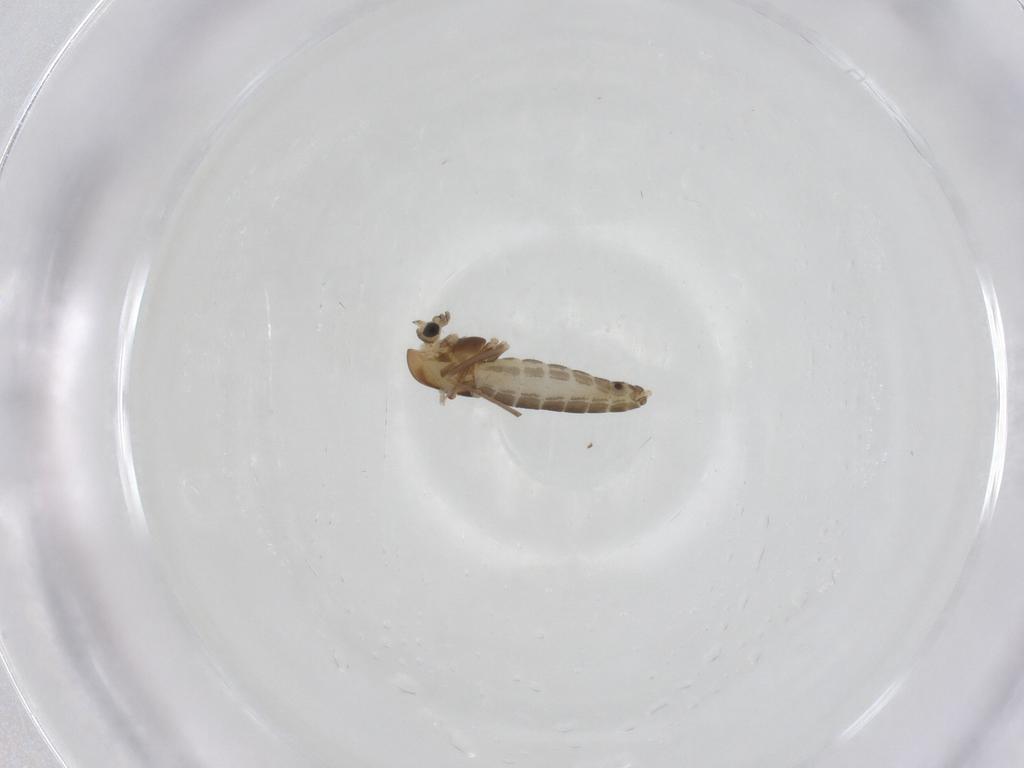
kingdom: Animalia
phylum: Arthropoda
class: Insecta
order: Diptera
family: Chironomidae
